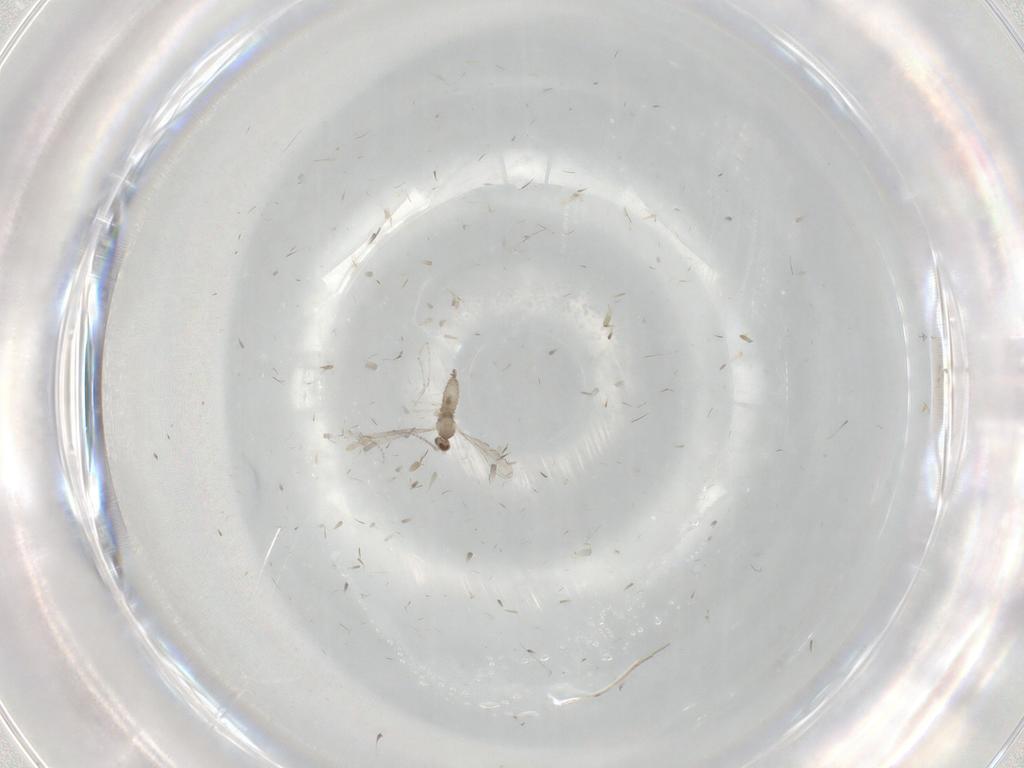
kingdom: Animalia
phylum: Arthropoda
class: Insecta
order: Diptera
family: Cecidomyiidae
